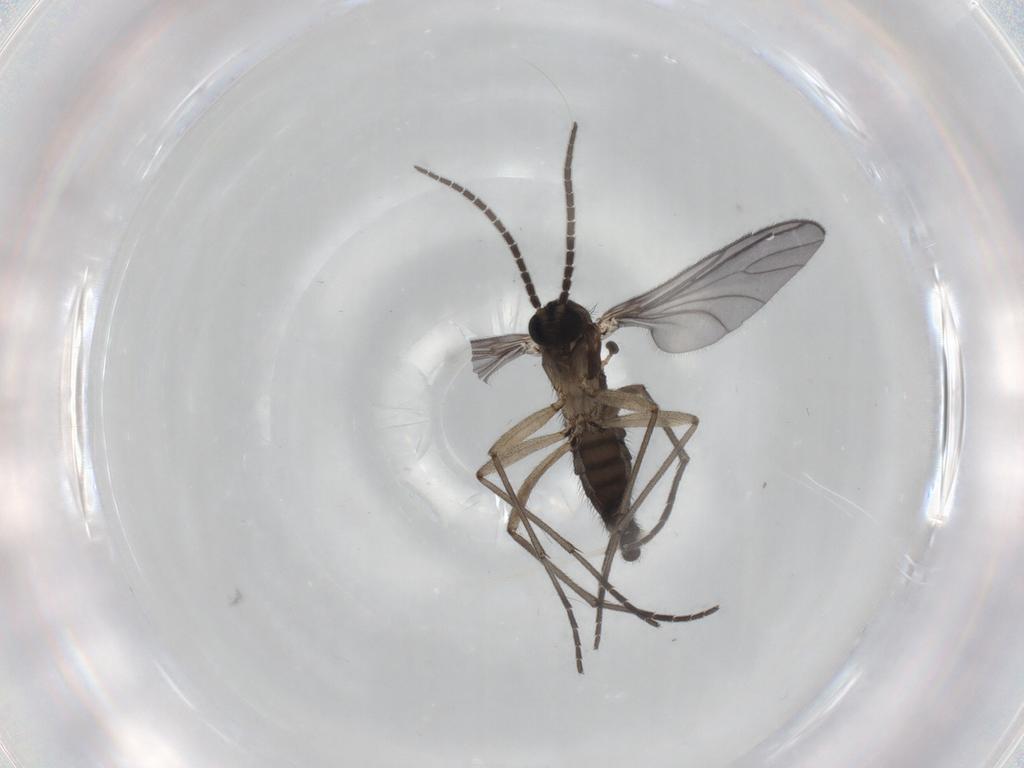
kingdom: Animalia
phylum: Arthropoda
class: Insecta
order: Diptera
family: Sciaridae
